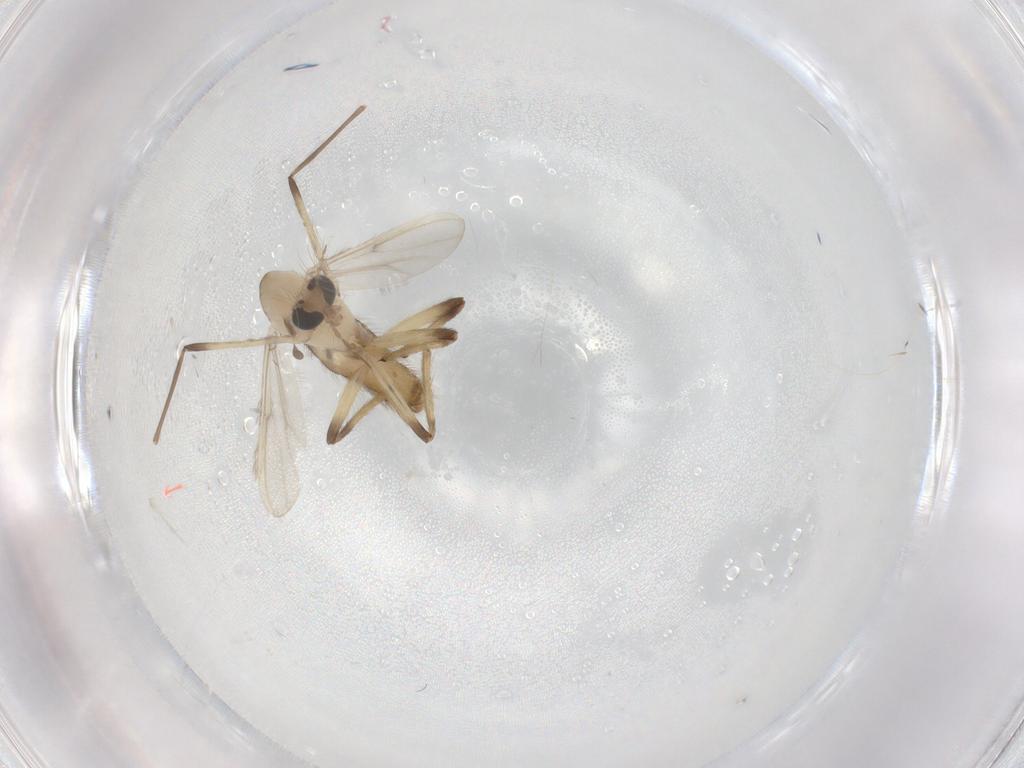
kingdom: Animalia
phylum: Arthropoda
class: Insecta
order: Diptera
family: Chironomidae
